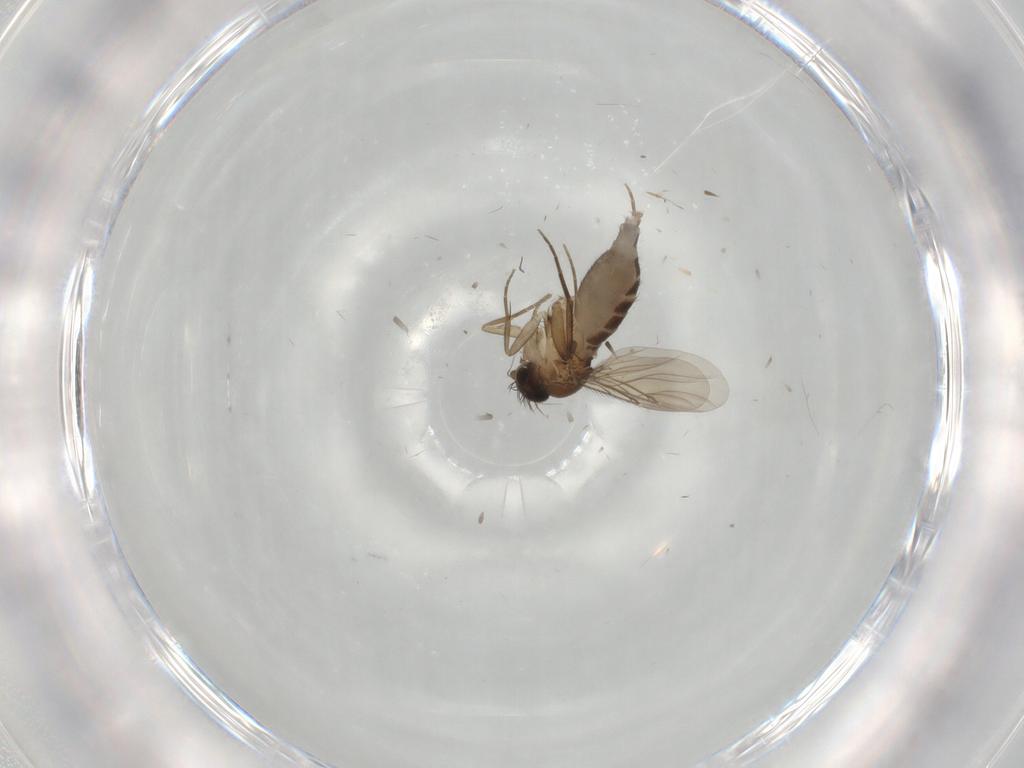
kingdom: Animalia
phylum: Arthropoda
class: Insecta
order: Diptera
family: Phoridae
